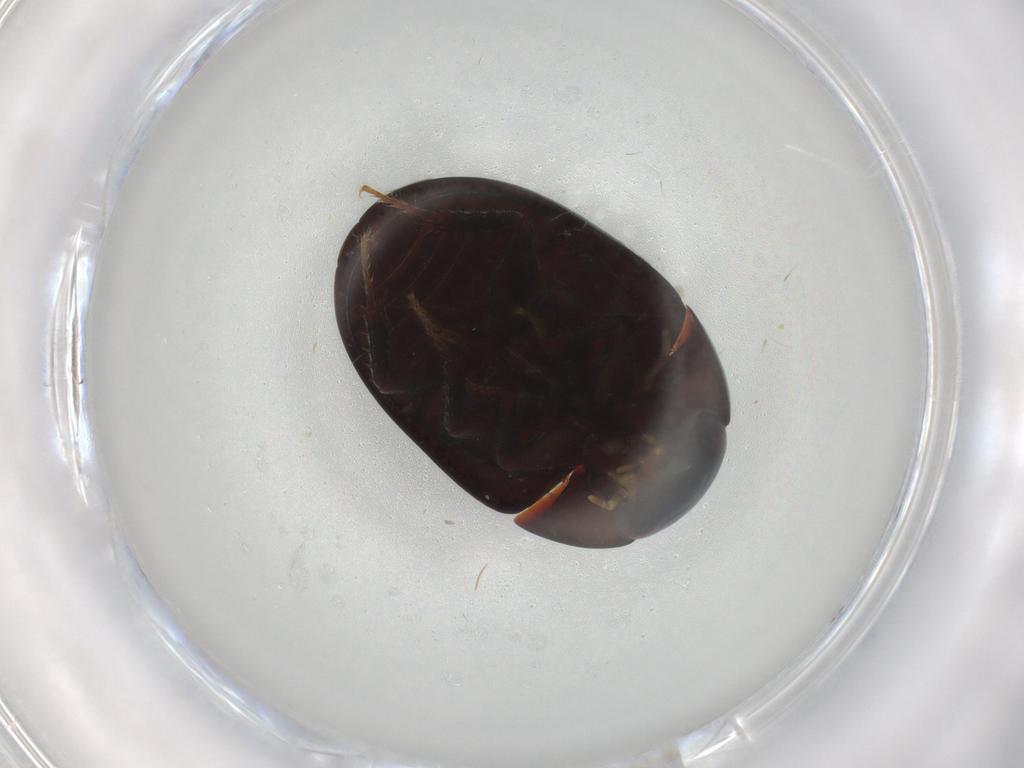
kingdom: Animalia
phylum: Arthropoda
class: Insecta
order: Coleoptera
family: Hydrophilidae
